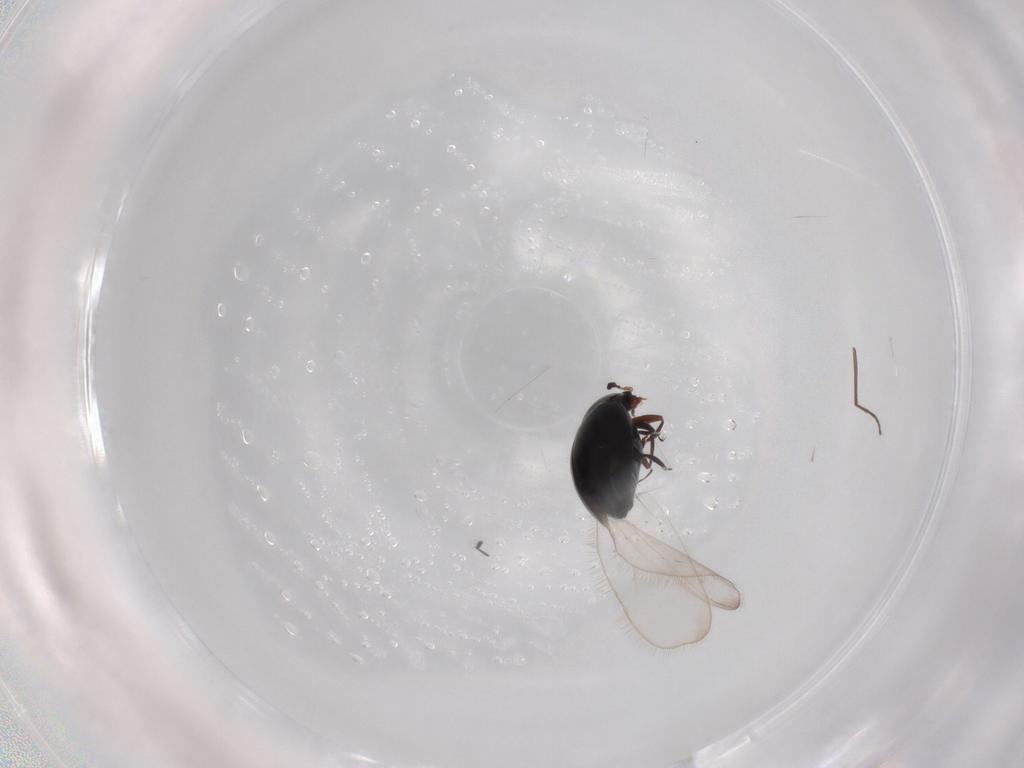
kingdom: Animalia
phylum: Arthropoda
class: Insecta
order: Coleoptera
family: Corylophidae
